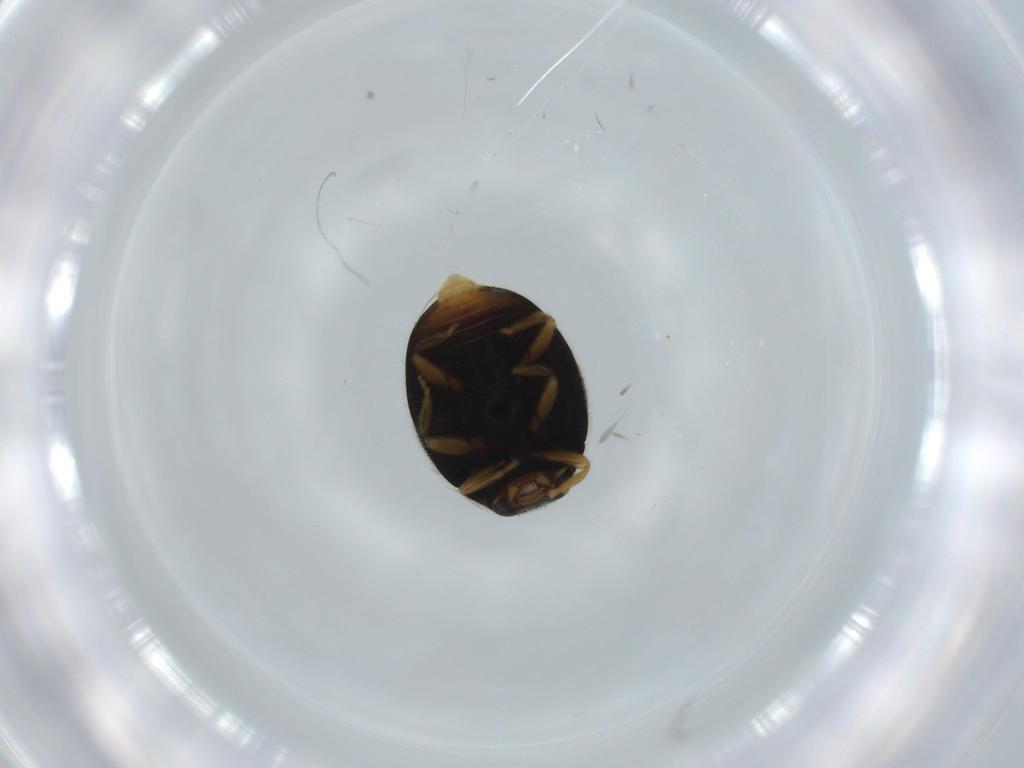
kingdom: Animalia
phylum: Arthropoda
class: Insecta
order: Coleoptera
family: Coccinellidae
